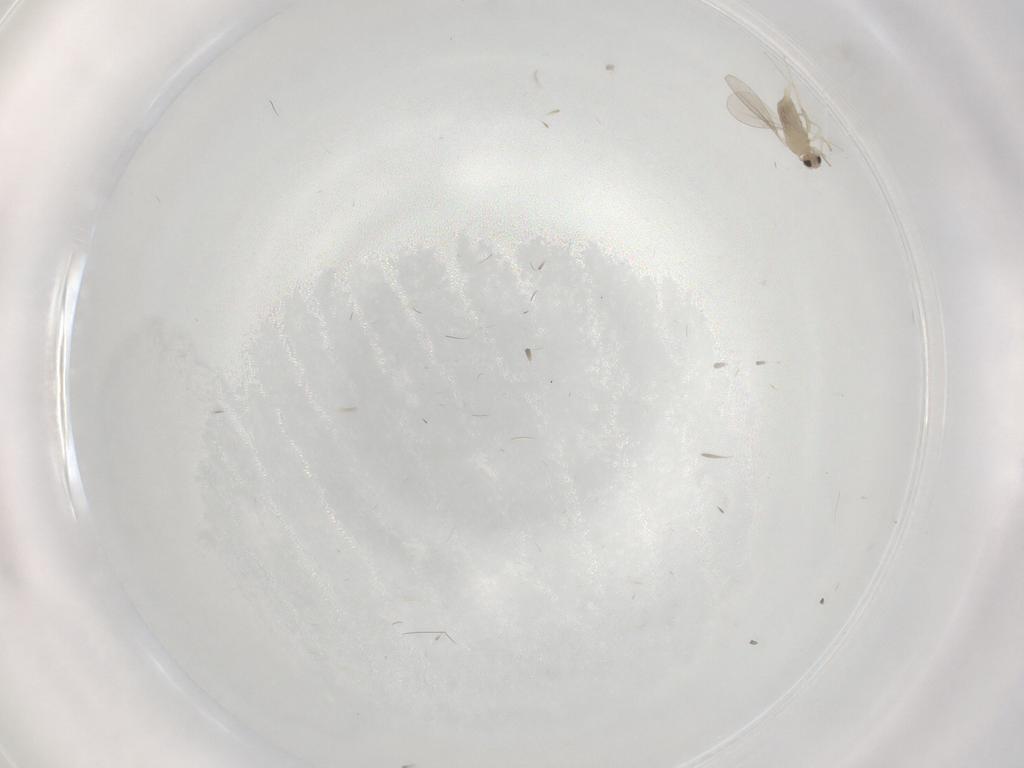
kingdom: Animalia
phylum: Arthropoda
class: Insecta
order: Diptera
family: Cecidomyiidae
